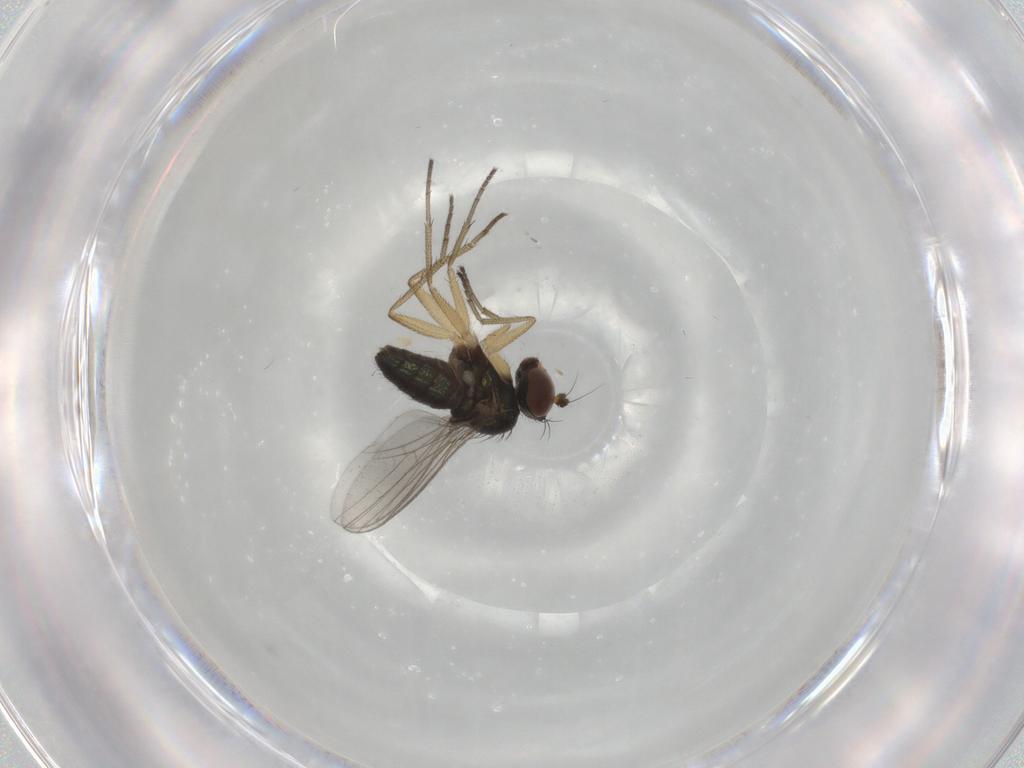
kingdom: Animalia
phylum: Arthropoda
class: Insecta
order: Diptera
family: Dolichopodidae
